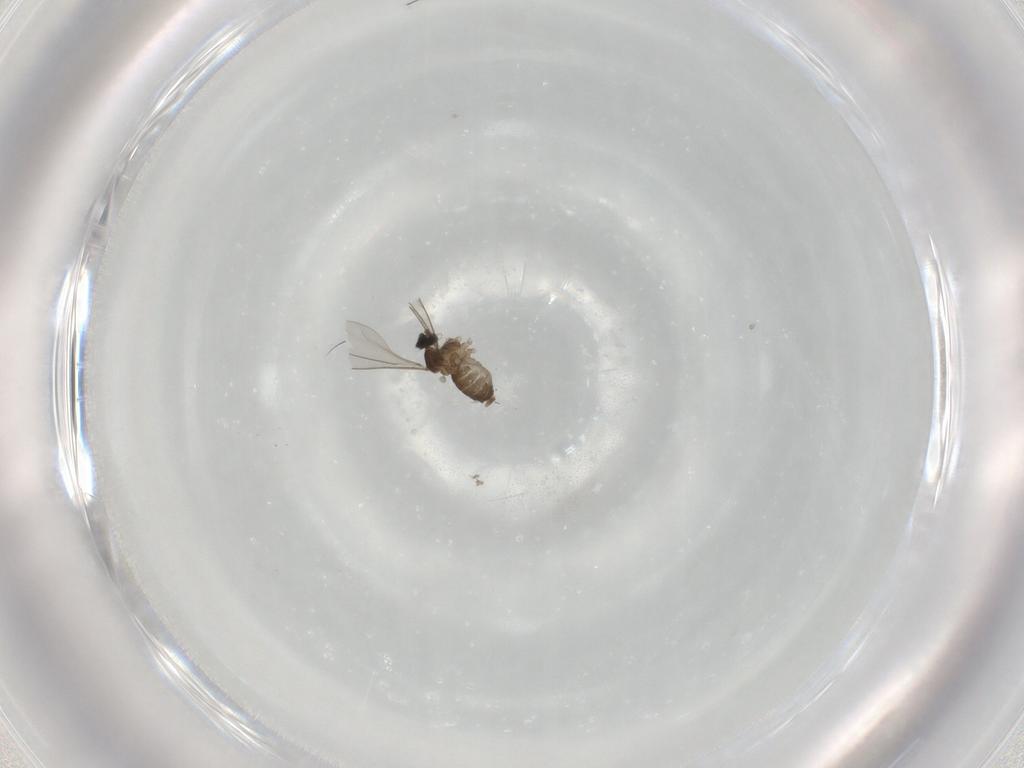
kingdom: Animalia
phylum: Arthropoda
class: Insecta
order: Diptera
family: Cecidomyiidae
